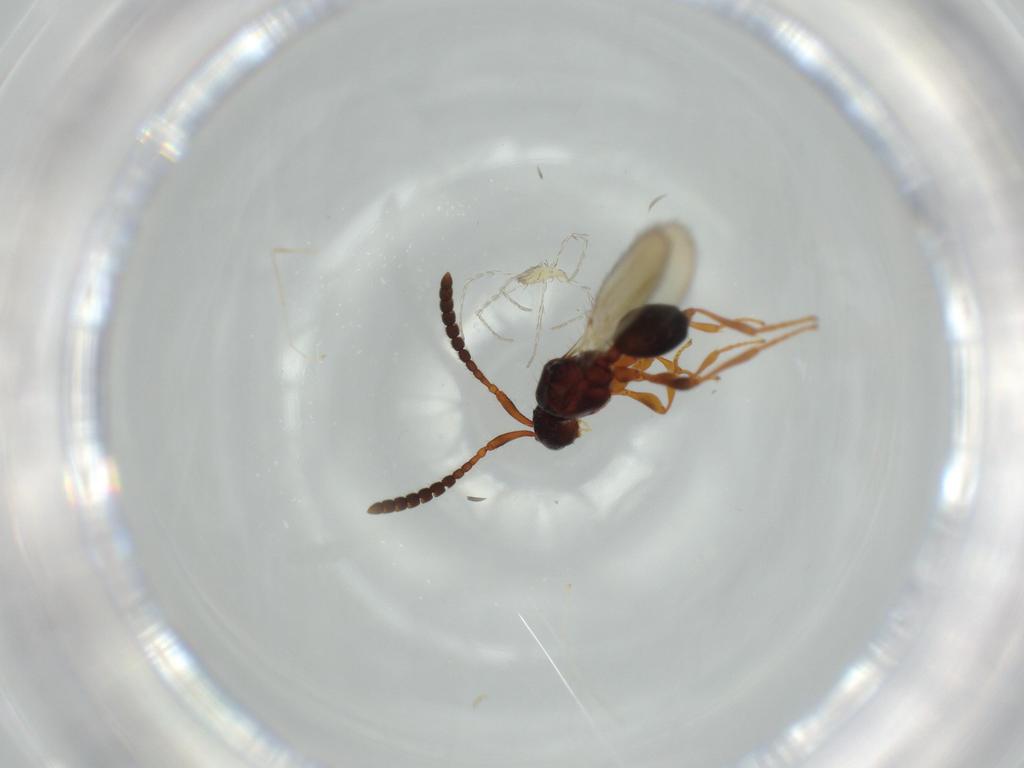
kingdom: Animalia
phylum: Arthropoda
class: Insecta
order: Hymenoptera
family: Diapriidae
